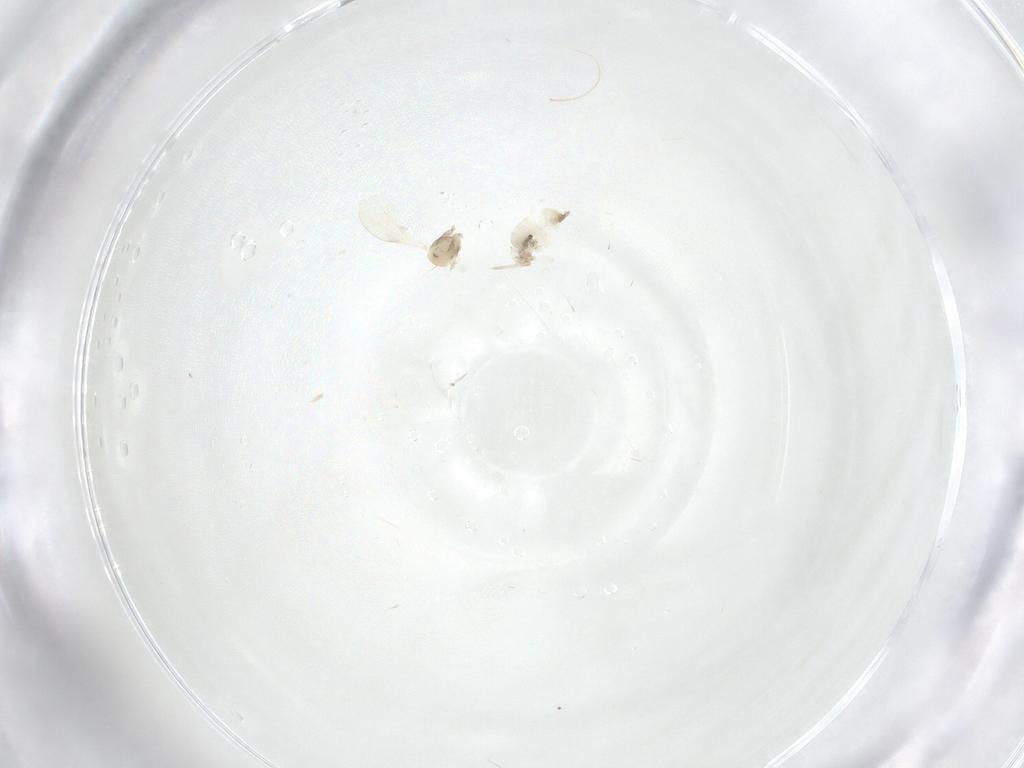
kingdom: Animalia
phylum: Arthropoda
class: Insecta
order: Diptera
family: Cecidomyiidae
